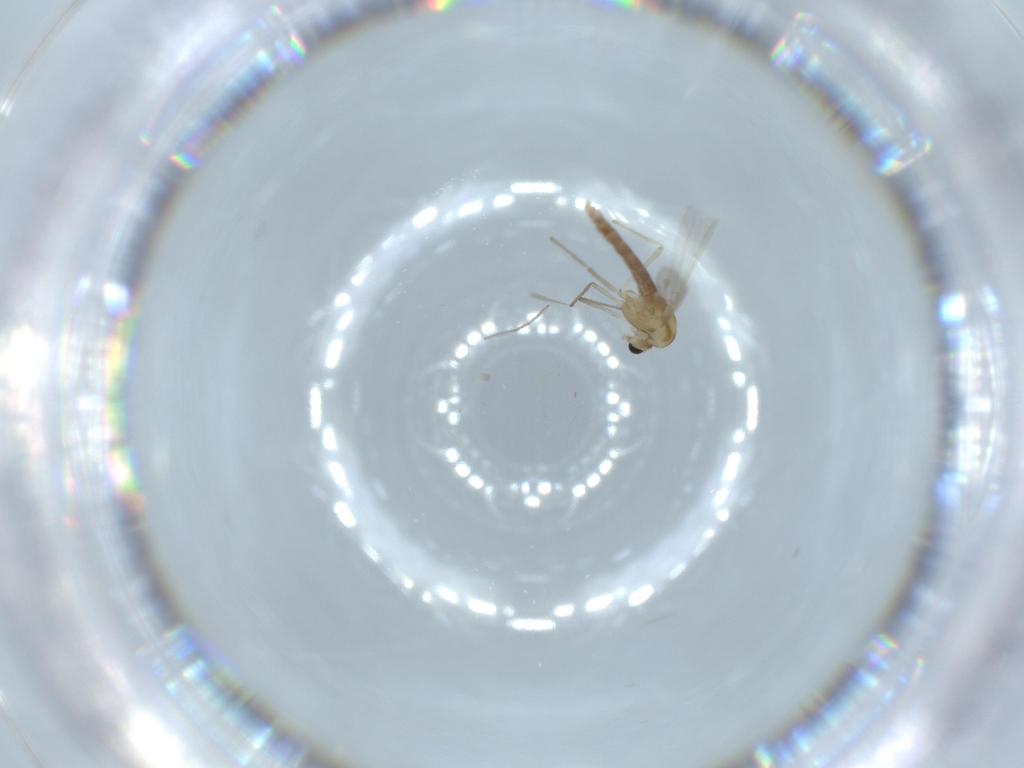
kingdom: Animalia
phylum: Arthropoda
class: Insecta
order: Diptera
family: Chironomidae
